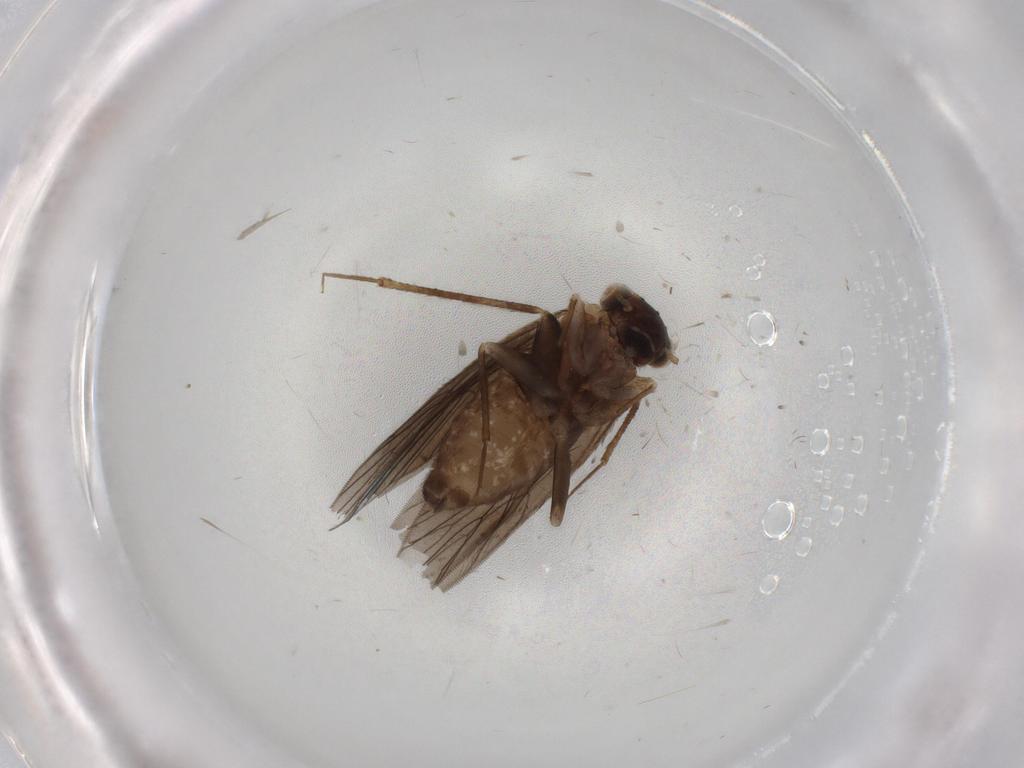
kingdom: Animalia
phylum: Arthropoda
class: Insecta
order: Psocodea
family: Lepidopsocidae
